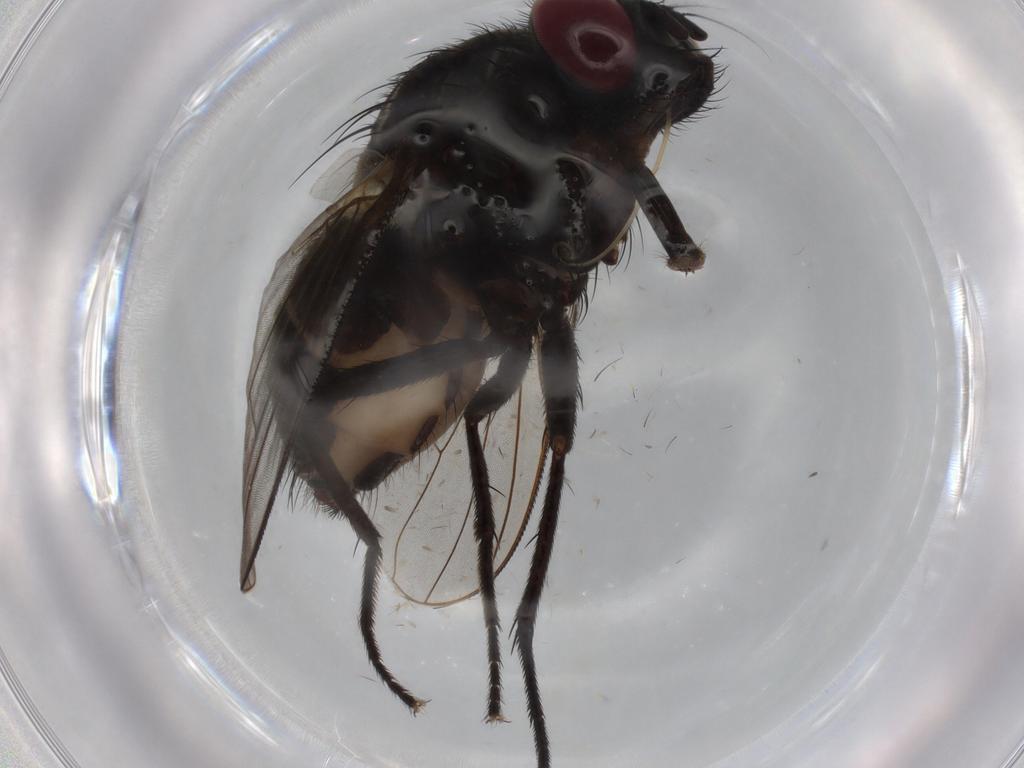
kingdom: Animalia
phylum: Arthropoda
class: Insecta
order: Diptera
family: Muscidae
